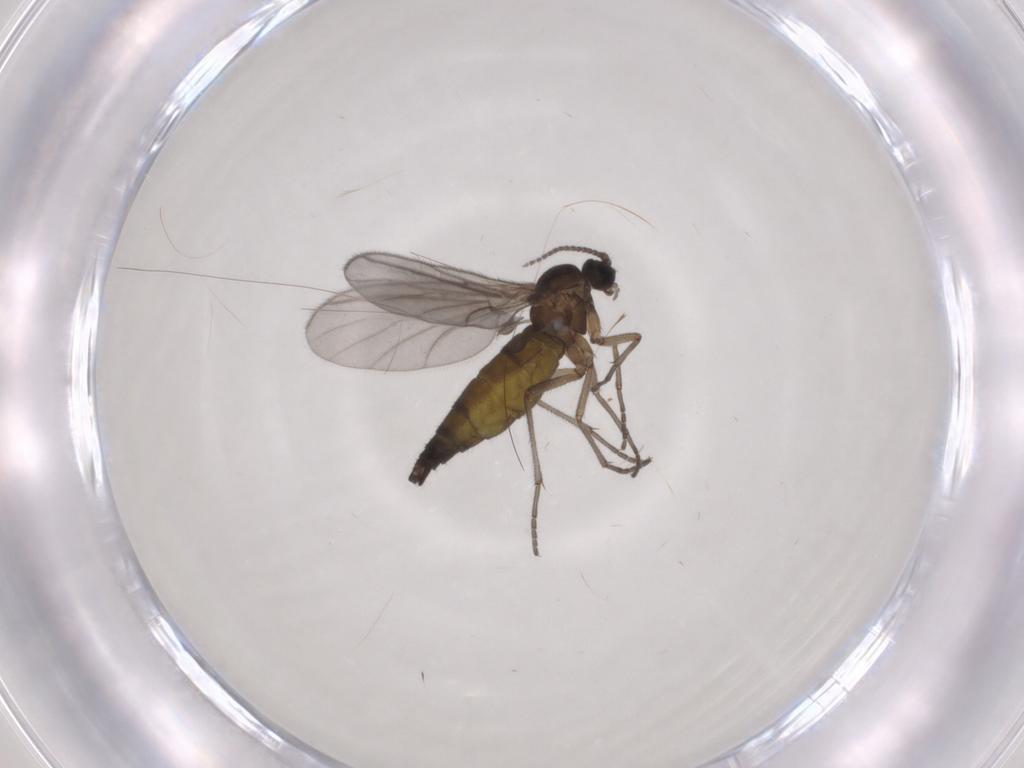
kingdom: Animalia
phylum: Arthropoda
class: Insecta
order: Diptera
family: Sciaridae
